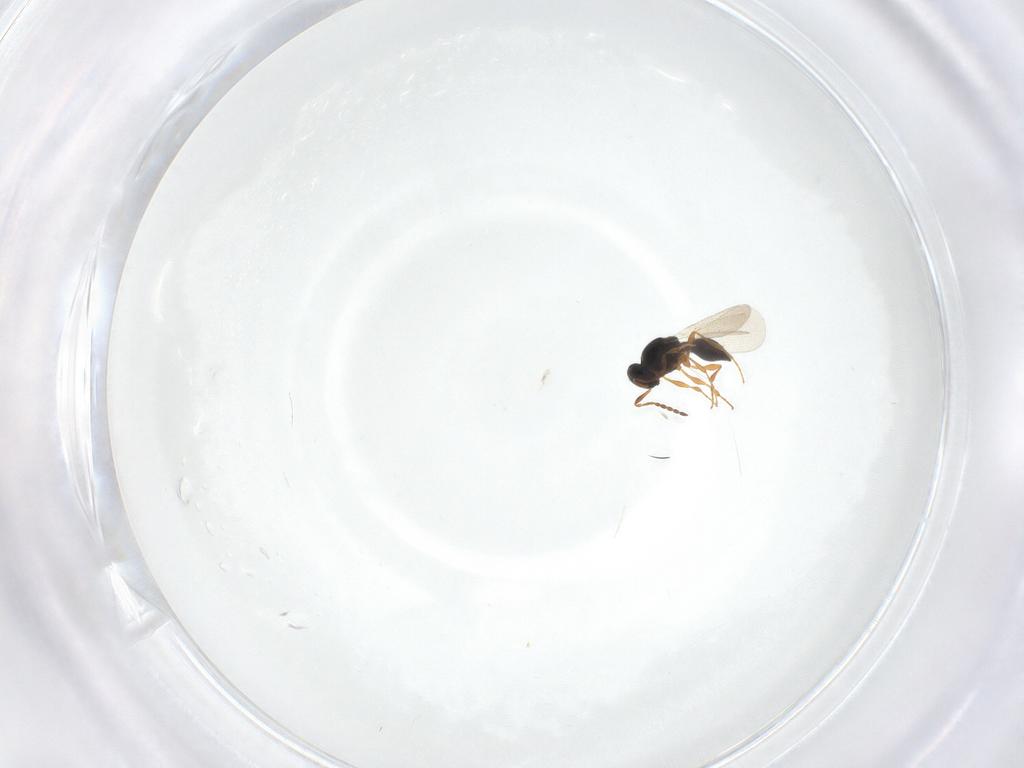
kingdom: Animalia
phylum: Arthropoda
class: Insecta
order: Hymenoptera
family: Platygastridae
